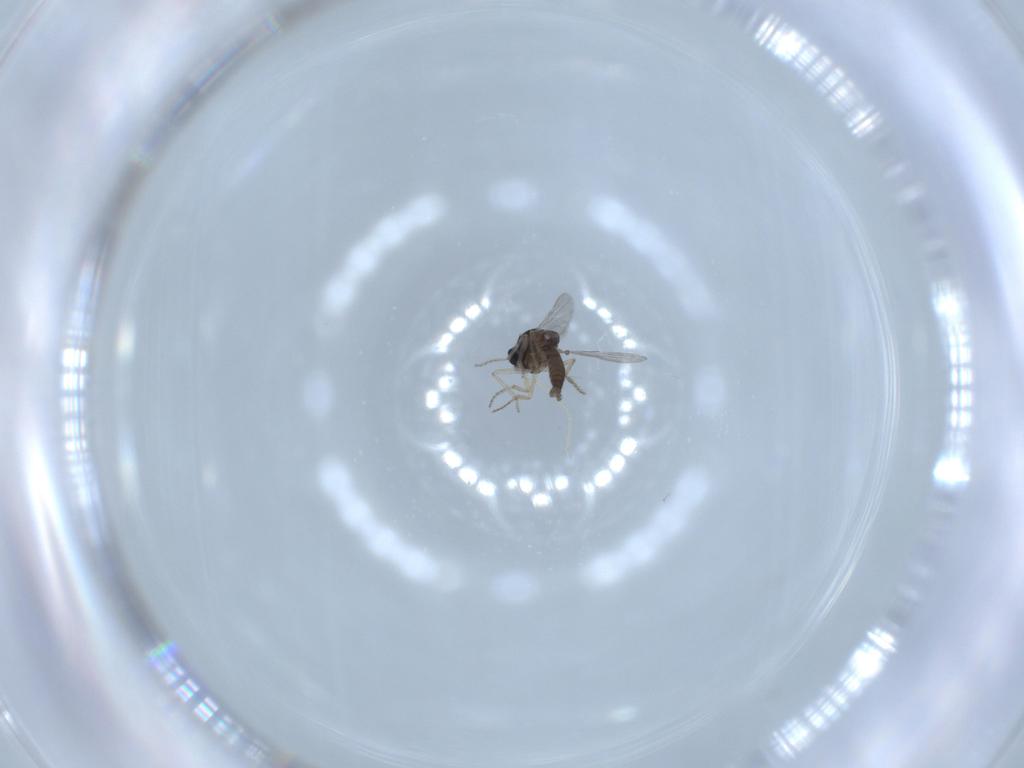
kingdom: Animalia
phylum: Arthropoda
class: Insecta
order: Diptera
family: Ceratopogonidae
